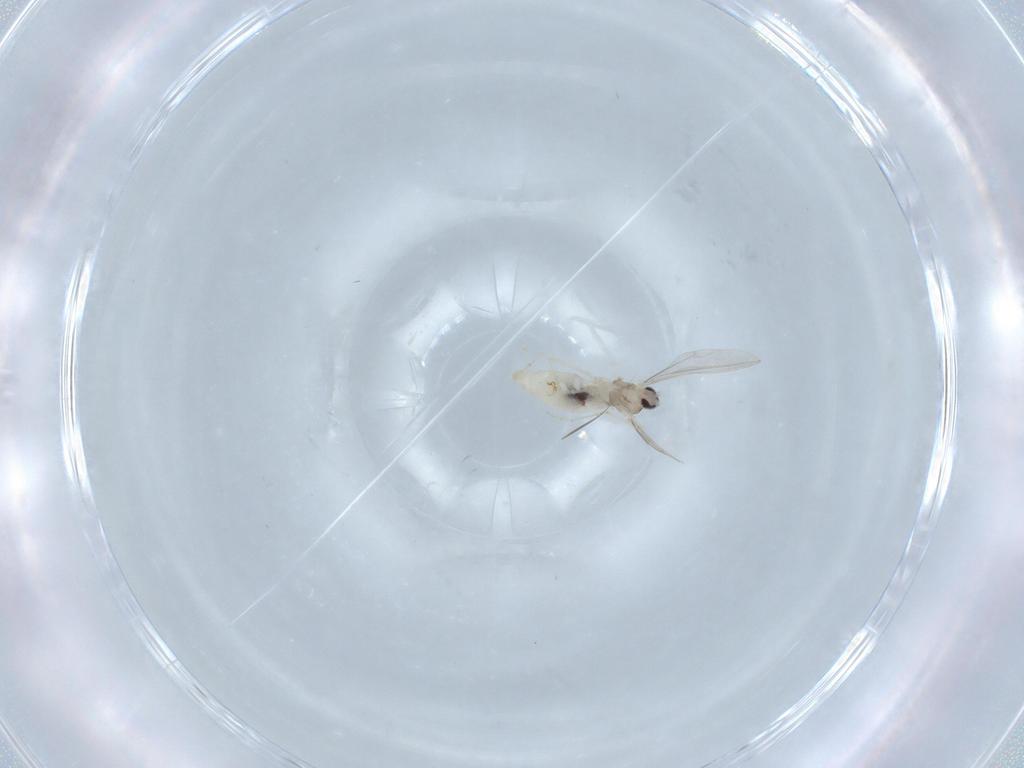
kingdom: Animalia
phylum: Arthropoda
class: Insecta
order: Diptera
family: Cecidomyiidae
